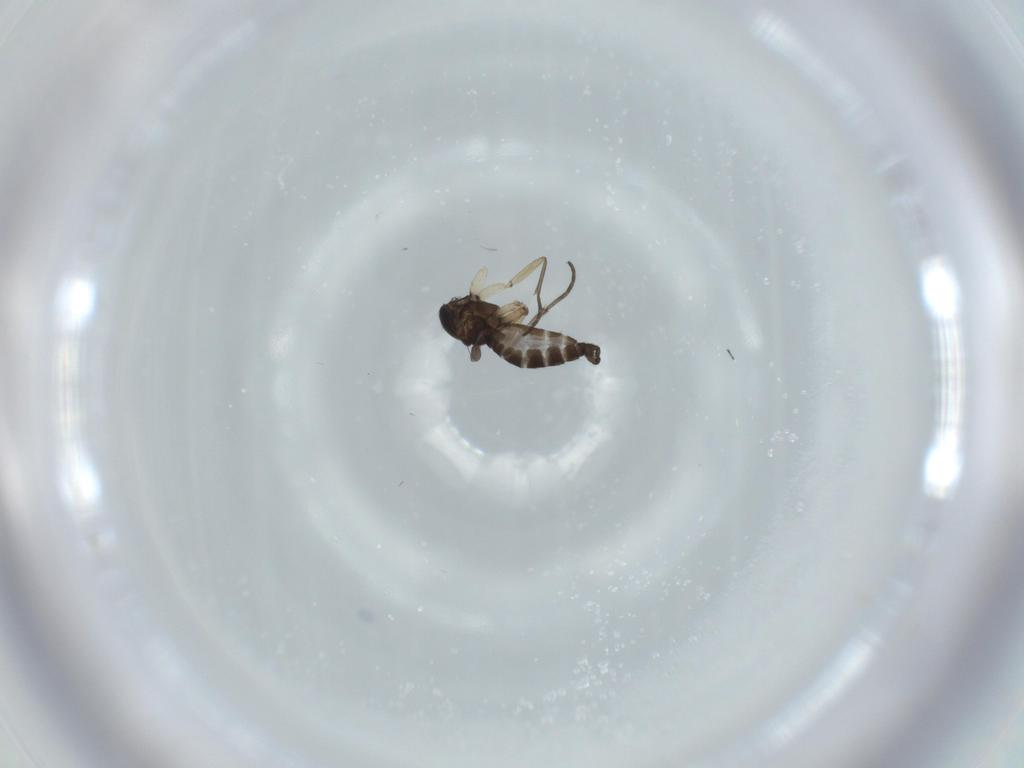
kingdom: Animalia
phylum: Arthropoda
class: Insecta
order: Diptera
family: Sciaridae
